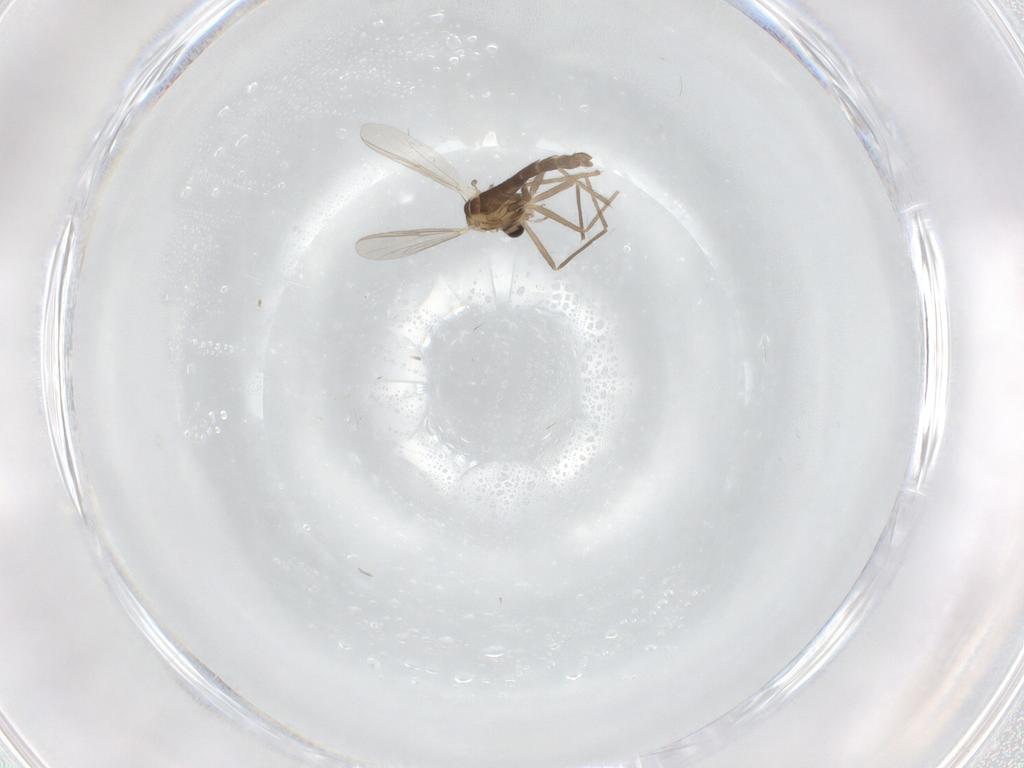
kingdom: Animalia
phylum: Arthropoda
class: Insecta
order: Diptera
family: Chironomidae
